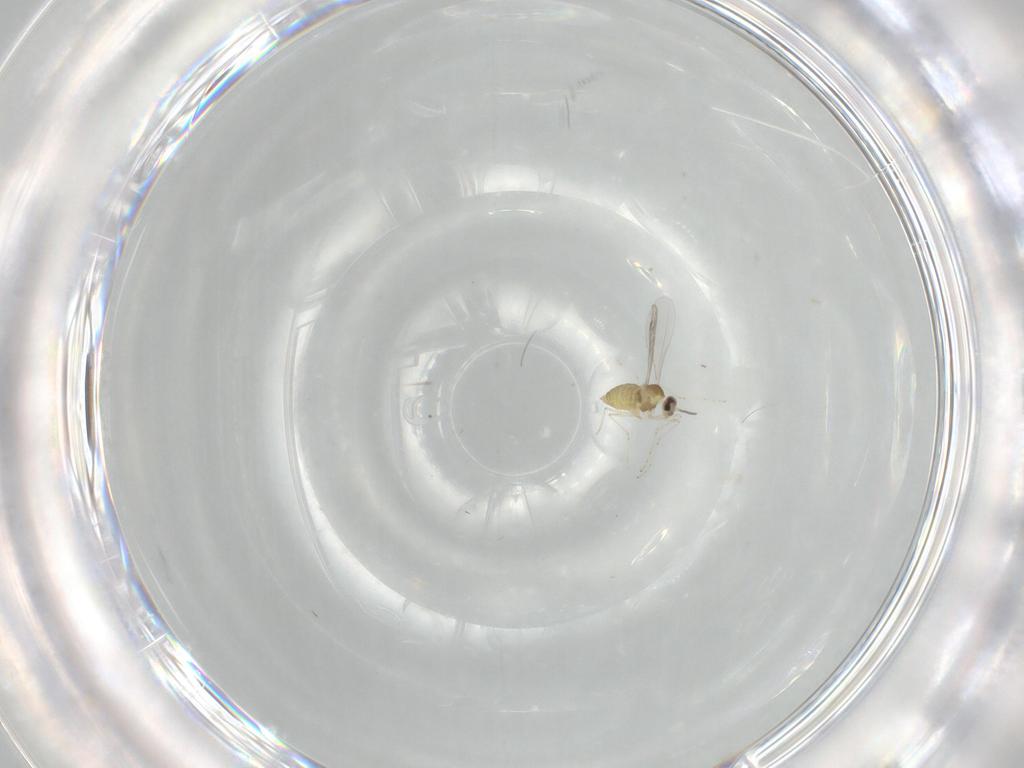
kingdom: Animalia
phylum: Arthropoda
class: Insecta
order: Diptera
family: Cecidomyiidae
